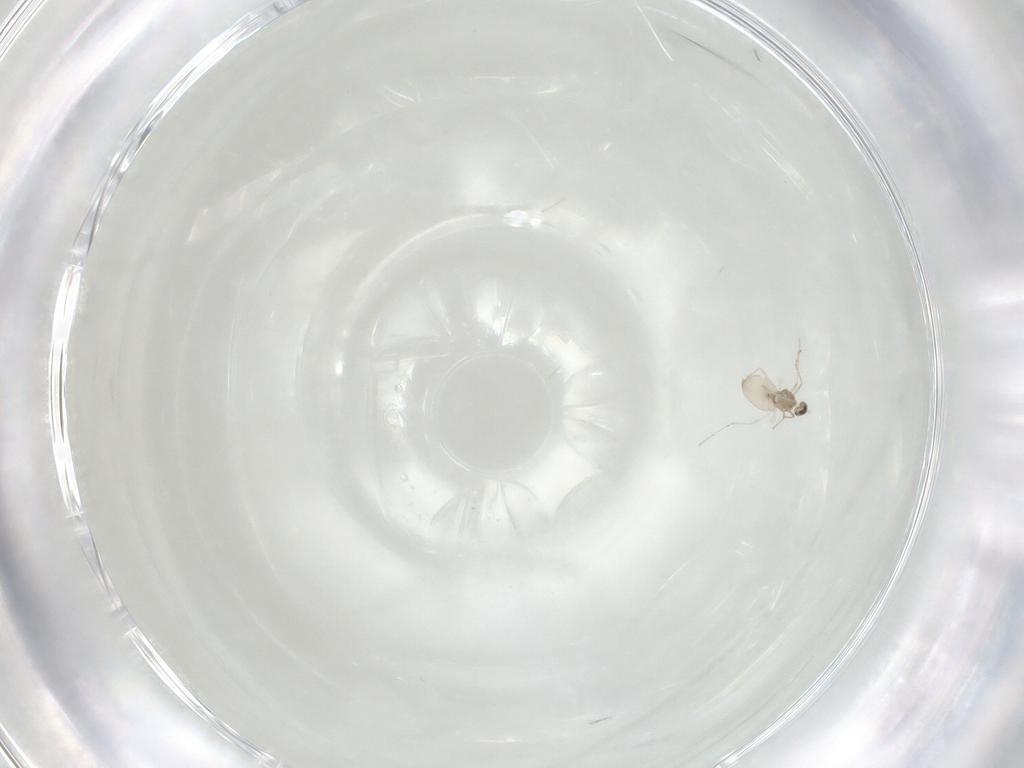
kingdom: Animalia
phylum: Arthropoda
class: Insecta
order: Diptera
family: Cecidomyiidae
